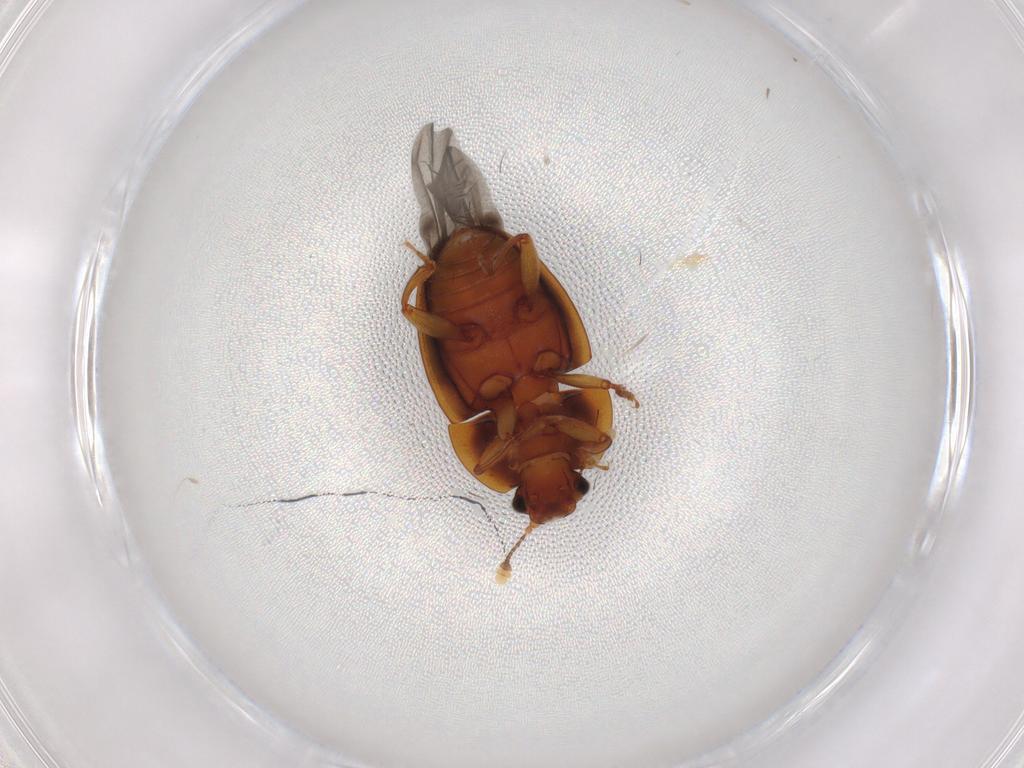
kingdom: Animalia
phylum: Arthropoda
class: Insecta
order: Coleoptera
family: Nitidulidae
